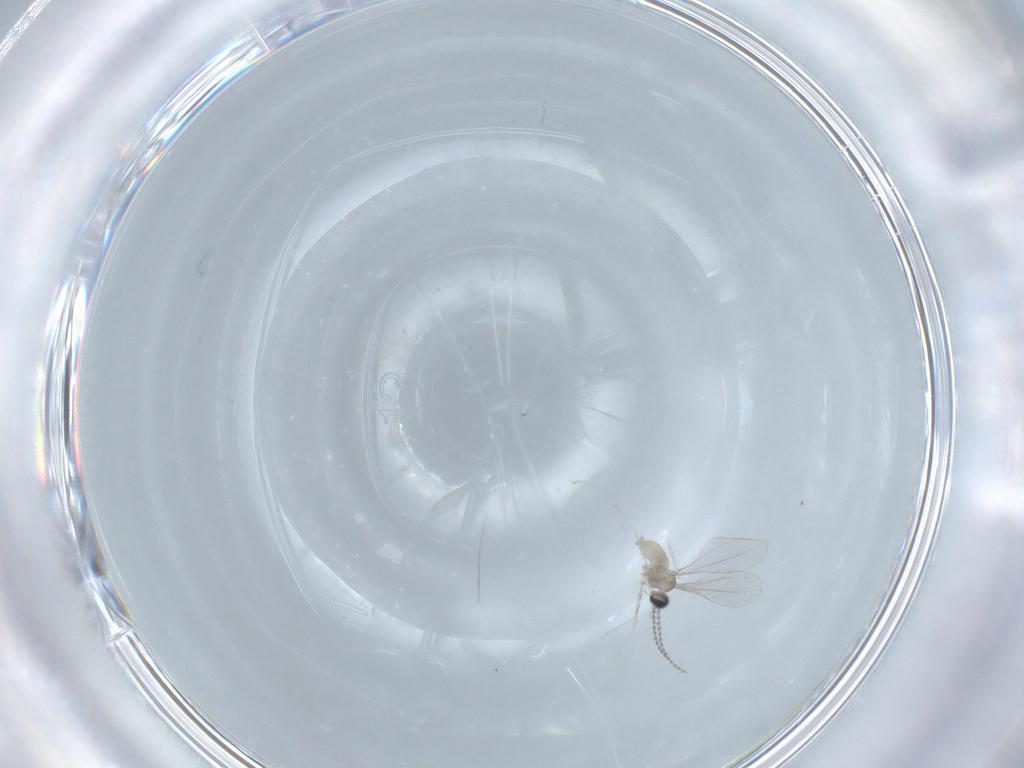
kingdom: Animalia
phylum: Arthropoda
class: Insecta
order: Diptera
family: Cecidomyiidae
